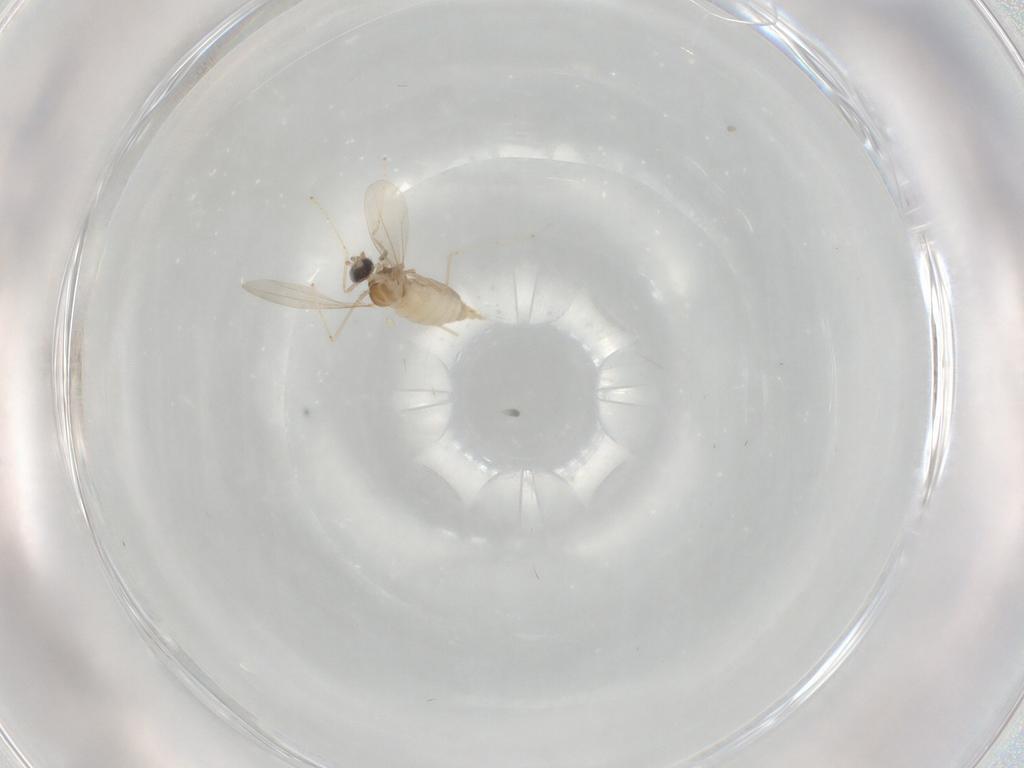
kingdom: Animalia
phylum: Arthropoda
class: Insecta
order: Diptera
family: Cecidomyiidae
